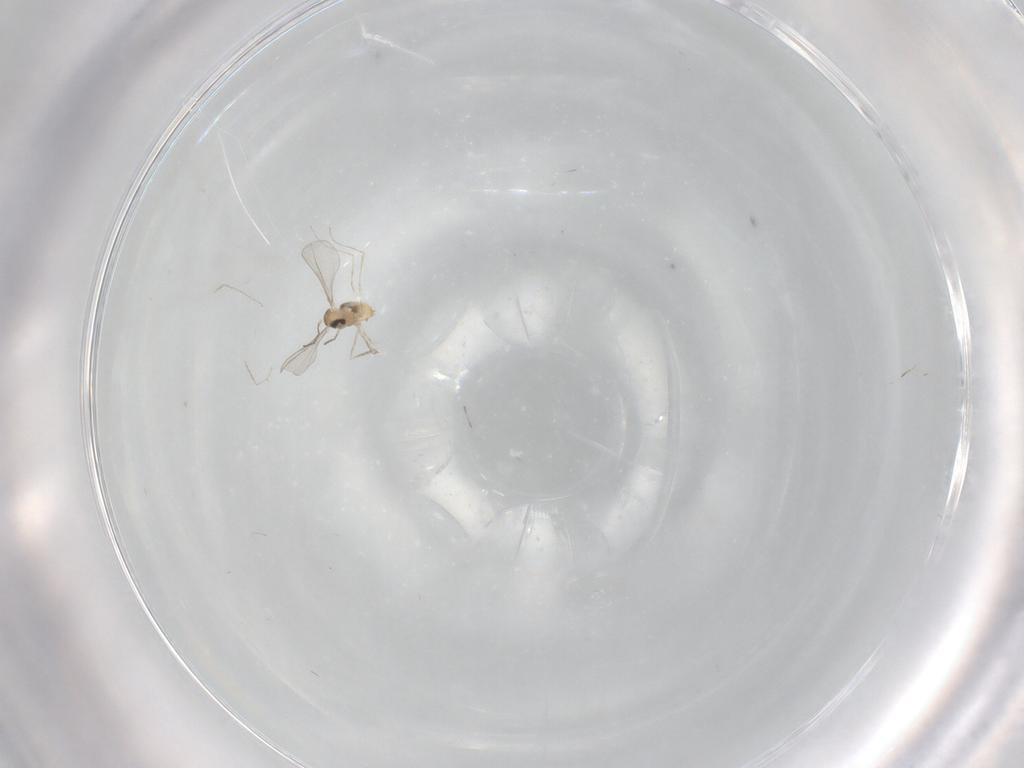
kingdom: Animalia
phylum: Arthropoda
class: Insecta
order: Diptera
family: Cecidomyiidae
